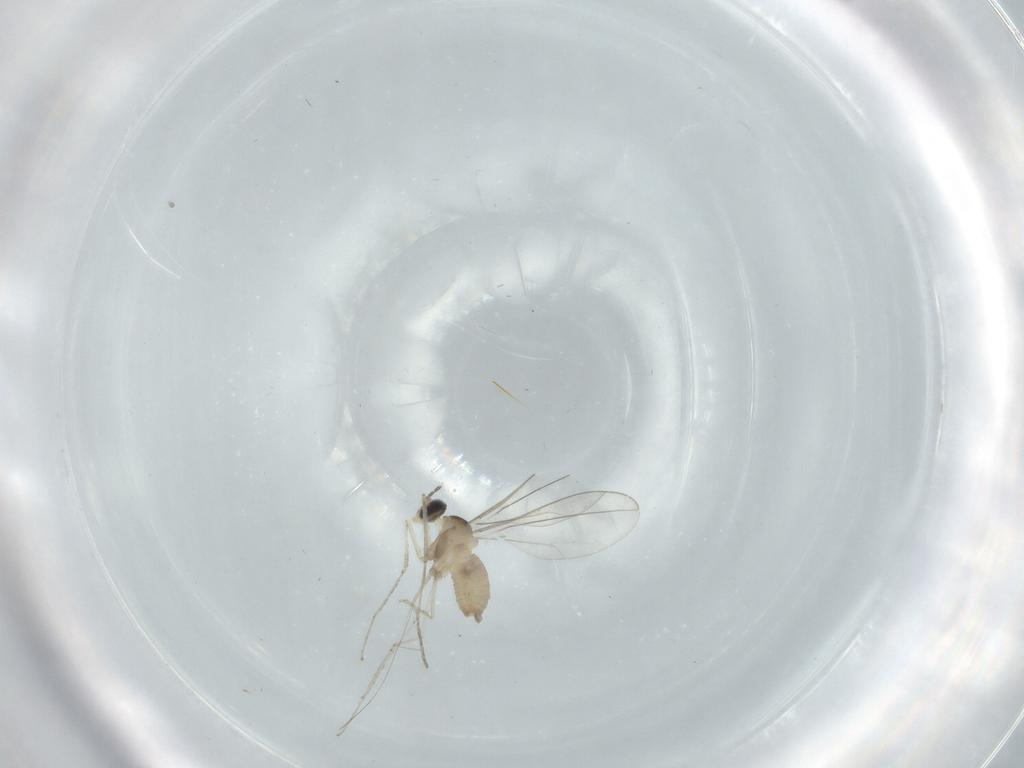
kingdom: Animalia
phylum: Arthropoda
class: Insecta
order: Diptera
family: Cecidomyiidae
